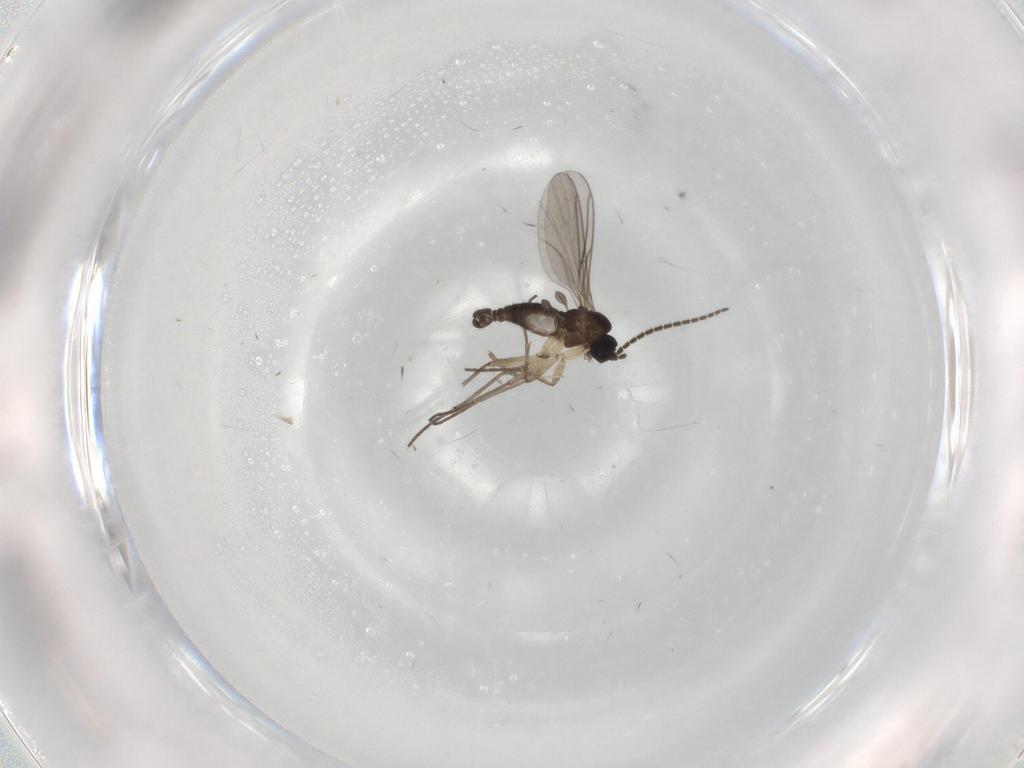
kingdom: Animalia
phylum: Arthropoda
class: Insecta
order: Diptera
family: Sciaridae
